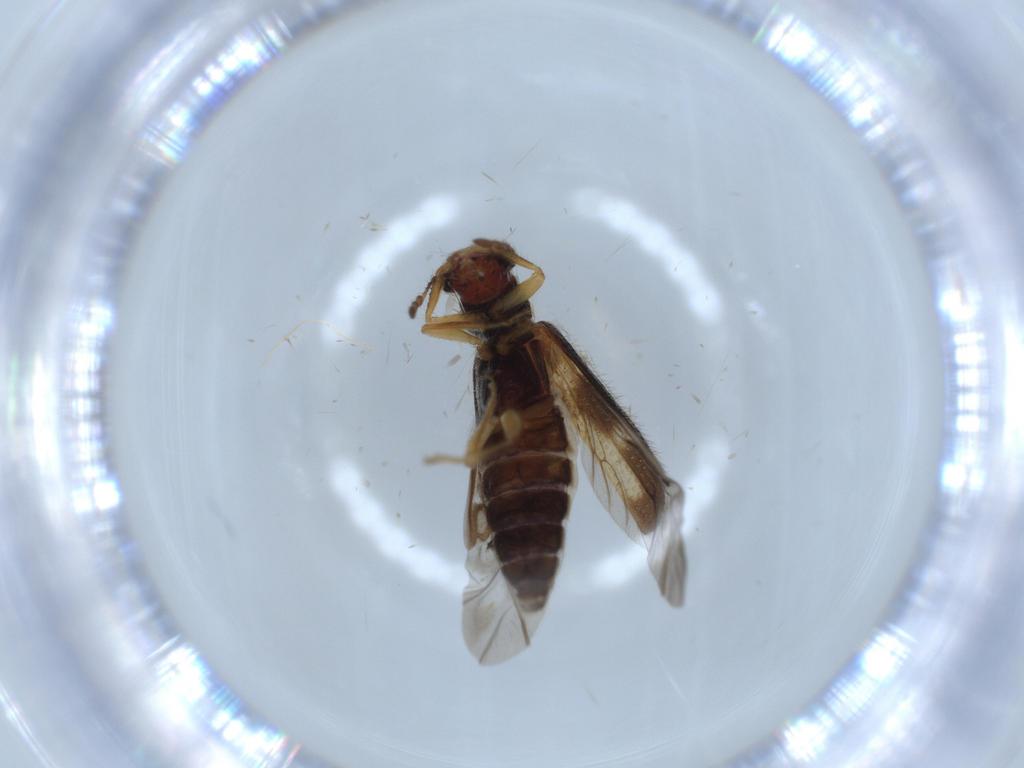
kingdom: Animalia
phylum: Arthropoda
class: Insecta
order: Coleoptera
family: Cleridae
